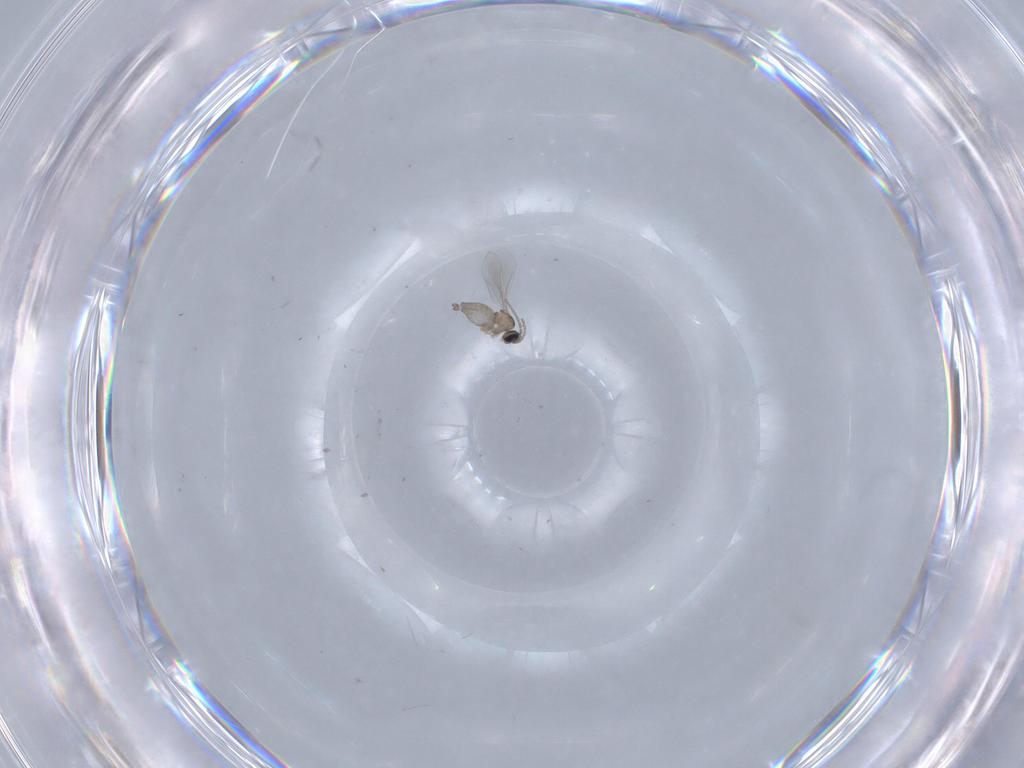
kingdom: Animalia
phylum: Arthropoda
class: Insecta
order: Diptera
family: Cecidomyiidae
